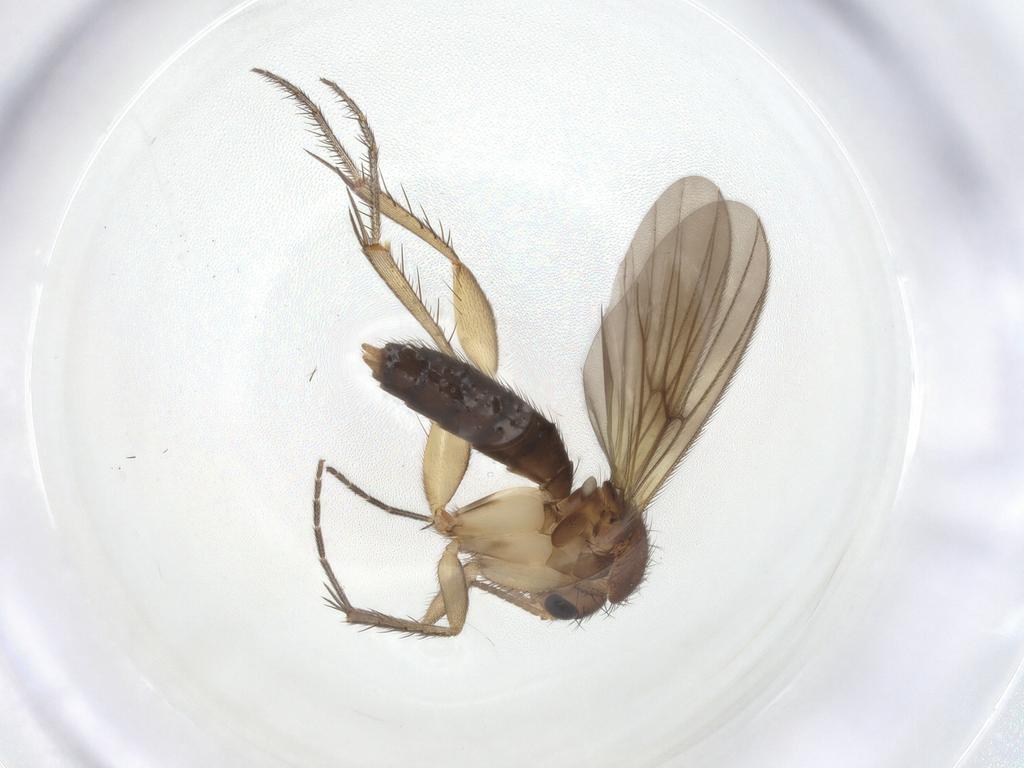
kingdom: Animalia
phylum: Arthropoda
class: Insecta
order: Diptera
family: Mycetophilidae
